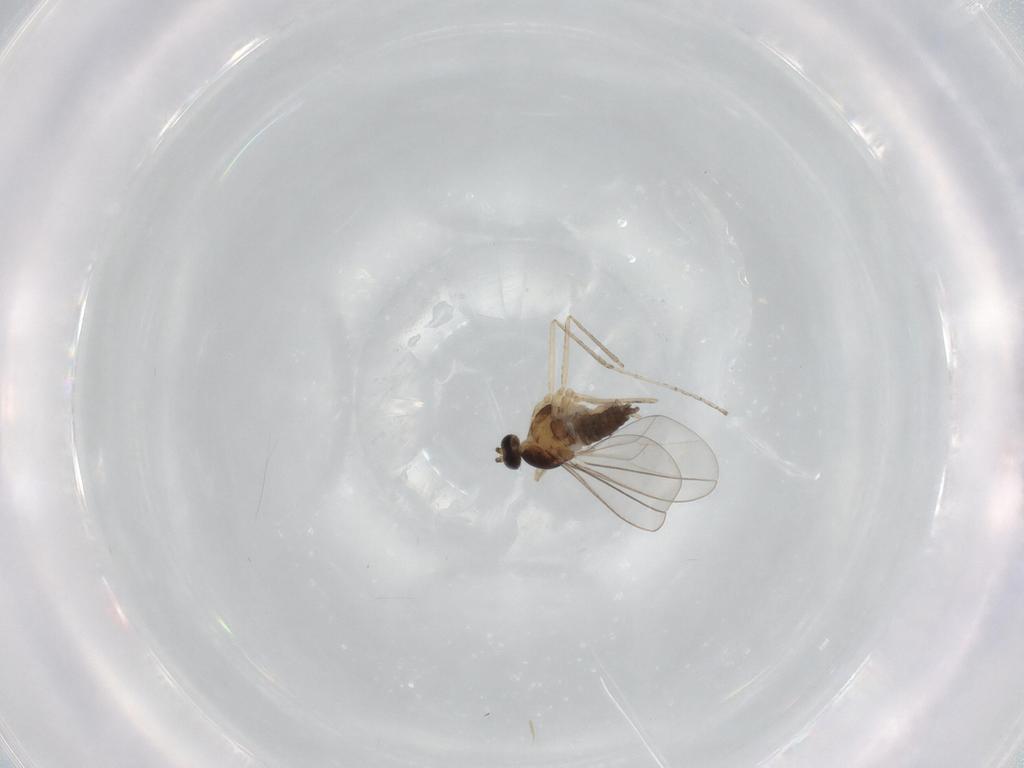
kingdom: Animalia
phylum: Arthropoda
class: Insecta
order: Diptera
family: Cecidomyiidae
